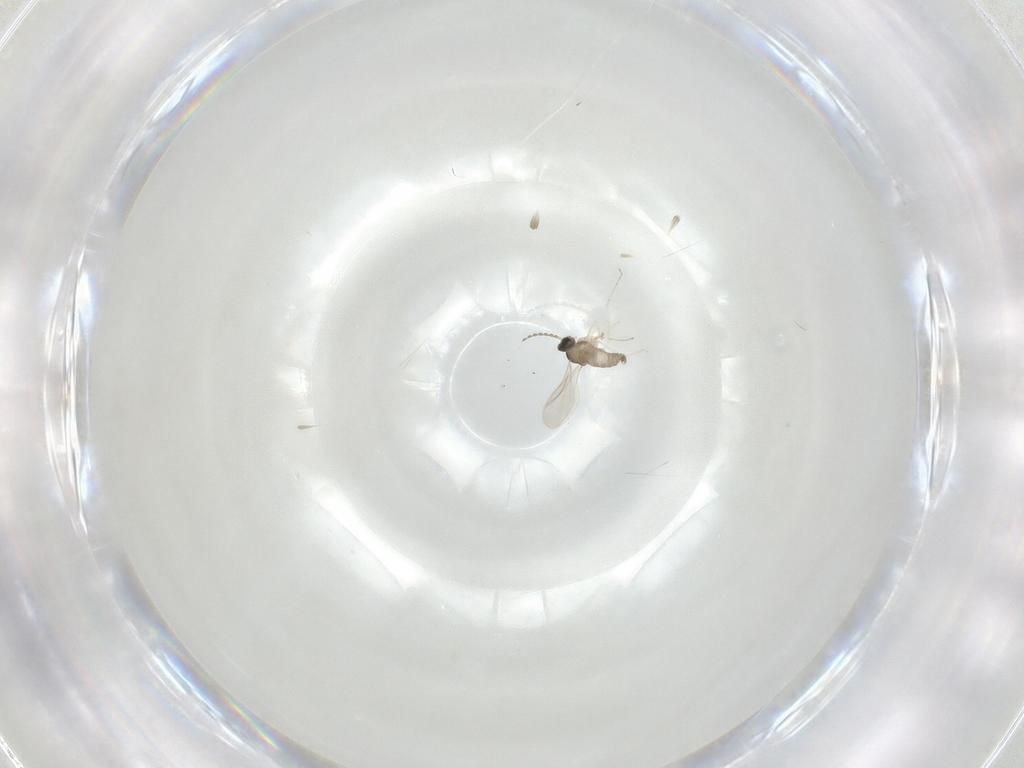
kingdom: Animalia
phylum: Arthropoda
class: Insecta
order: Diptera
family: Cecidomyiidae
